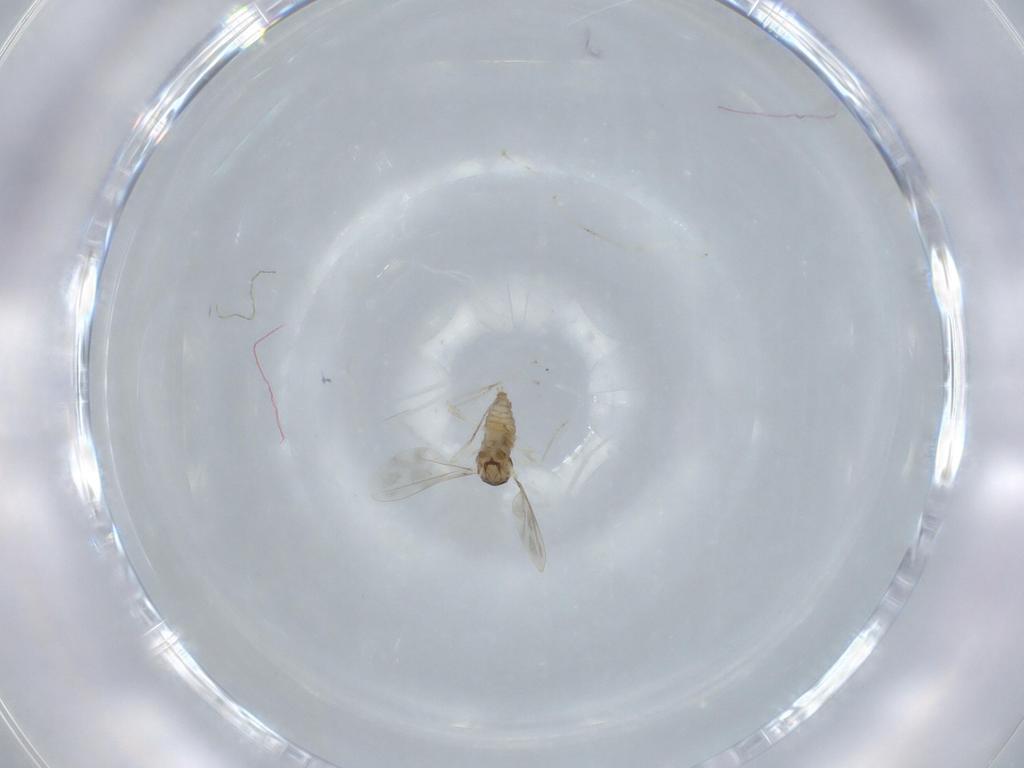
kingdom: Animalia
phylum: Arthropoda
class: Insecta
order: Diptera
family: Cecidomyiidae
